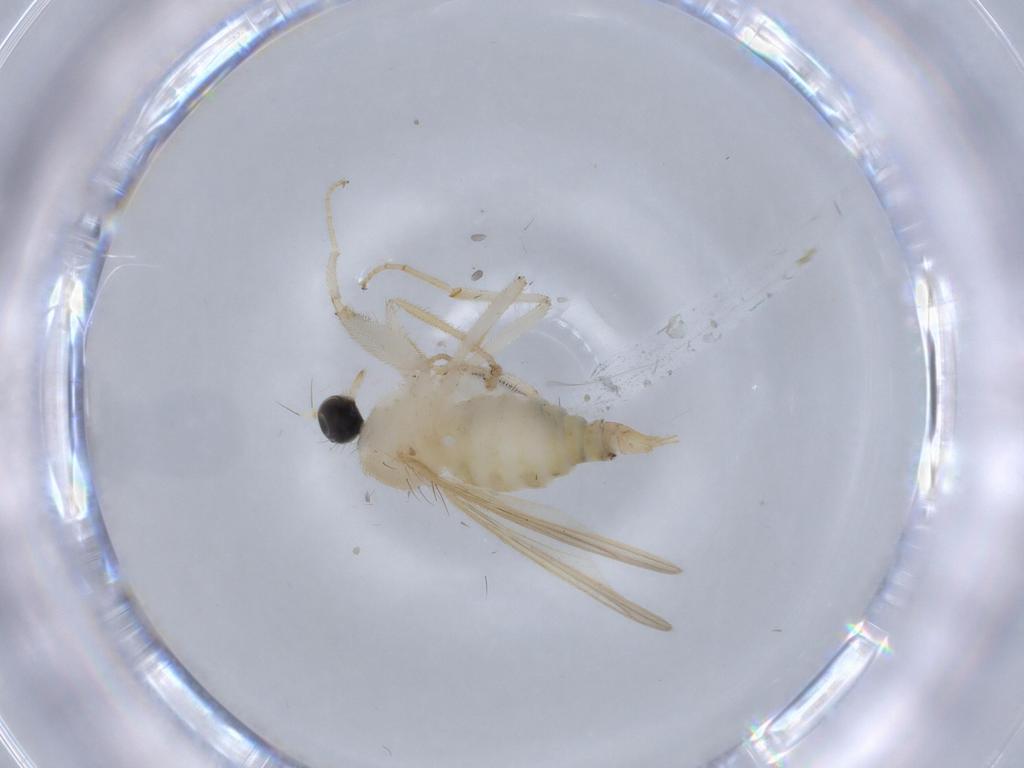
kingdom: Animalia
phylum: Arthropoda
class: Insecta
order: Diptera
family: Hybotidae
